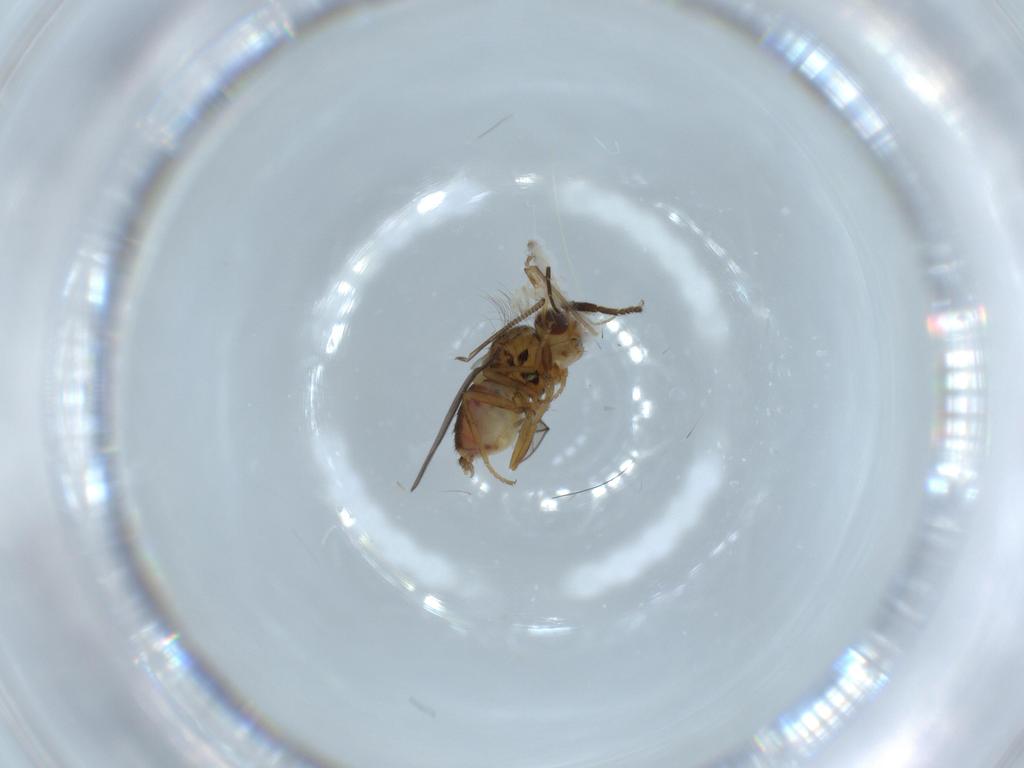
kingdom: Animalia
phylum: Arthropoda
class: Insecta
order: Diptera
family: Chloropidae
